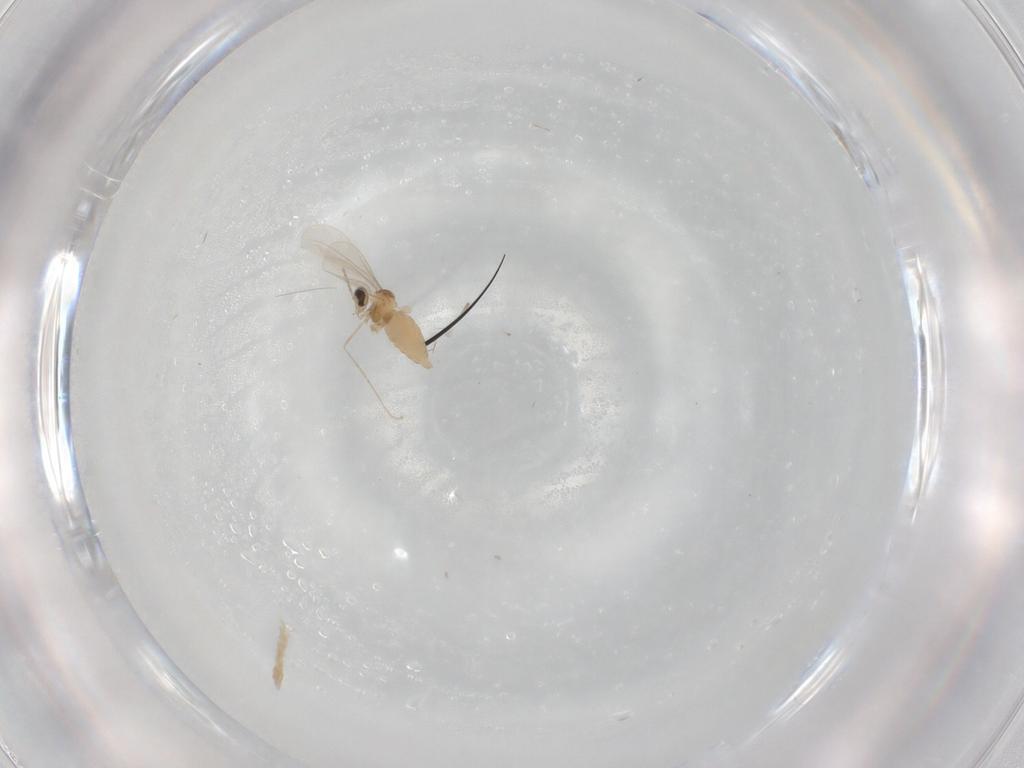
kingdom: Animalia
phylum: Arthropoda
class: Insecta
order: Diptera
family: Cecidomyiidae
